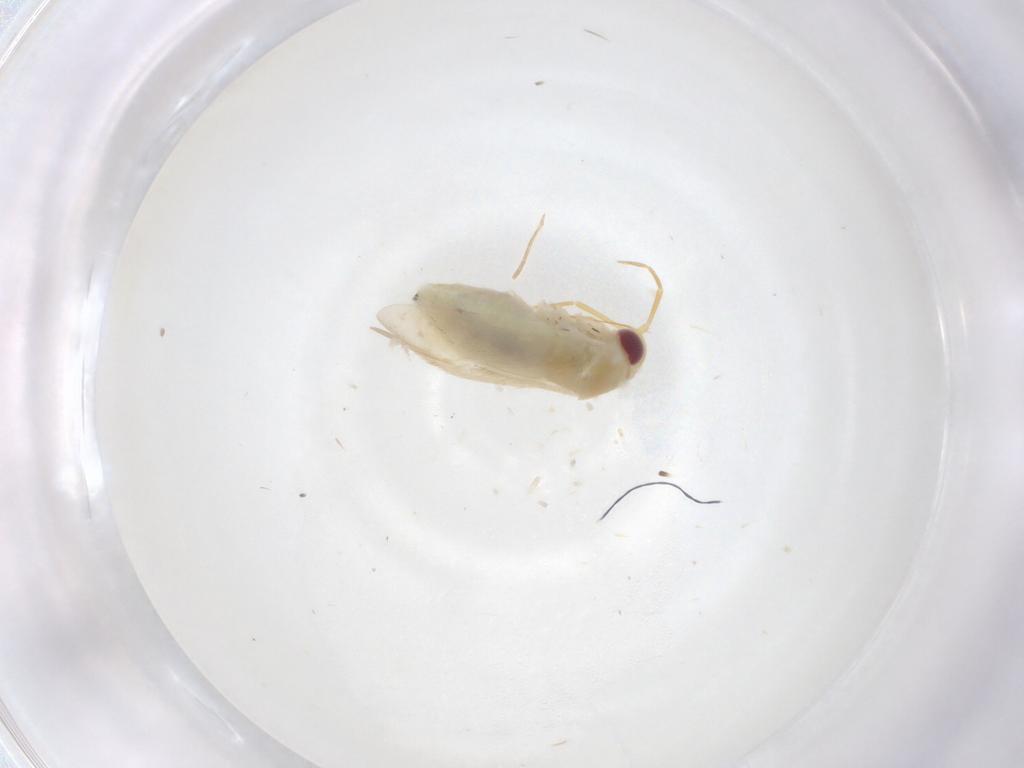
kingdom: Animalia
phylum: Arthropoda
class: Insecta
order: Hemiptera
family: Miridae
